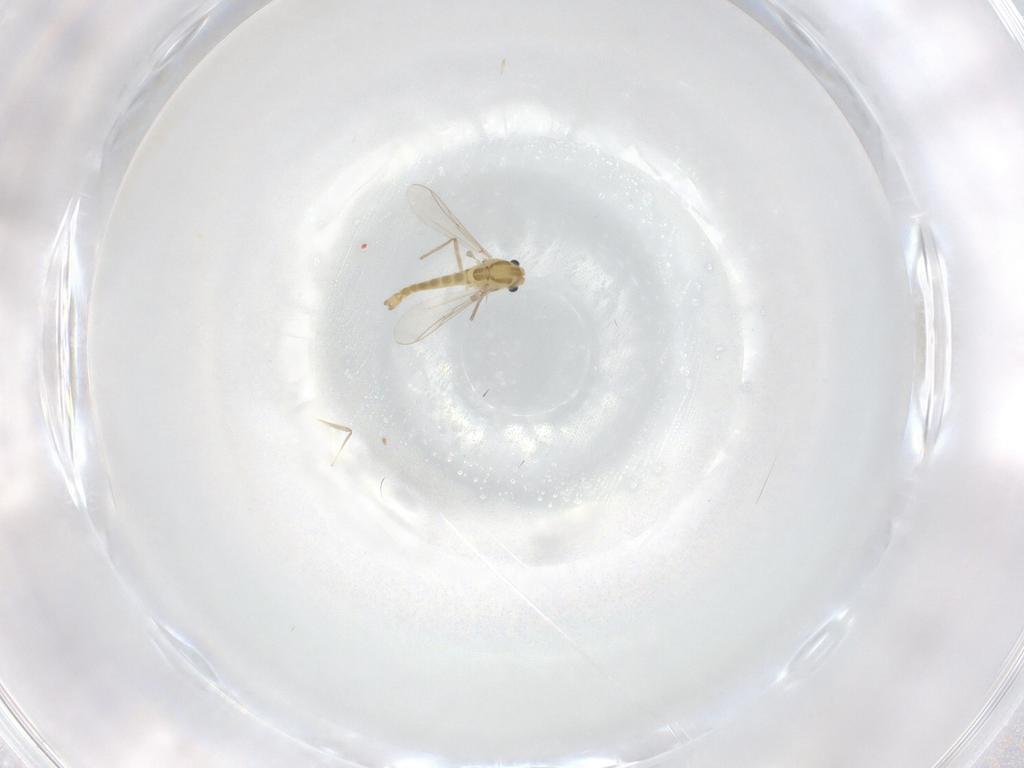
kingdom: Animalia
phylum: Arthropoda
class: Insecta
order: Diptera
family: Chironomidae
